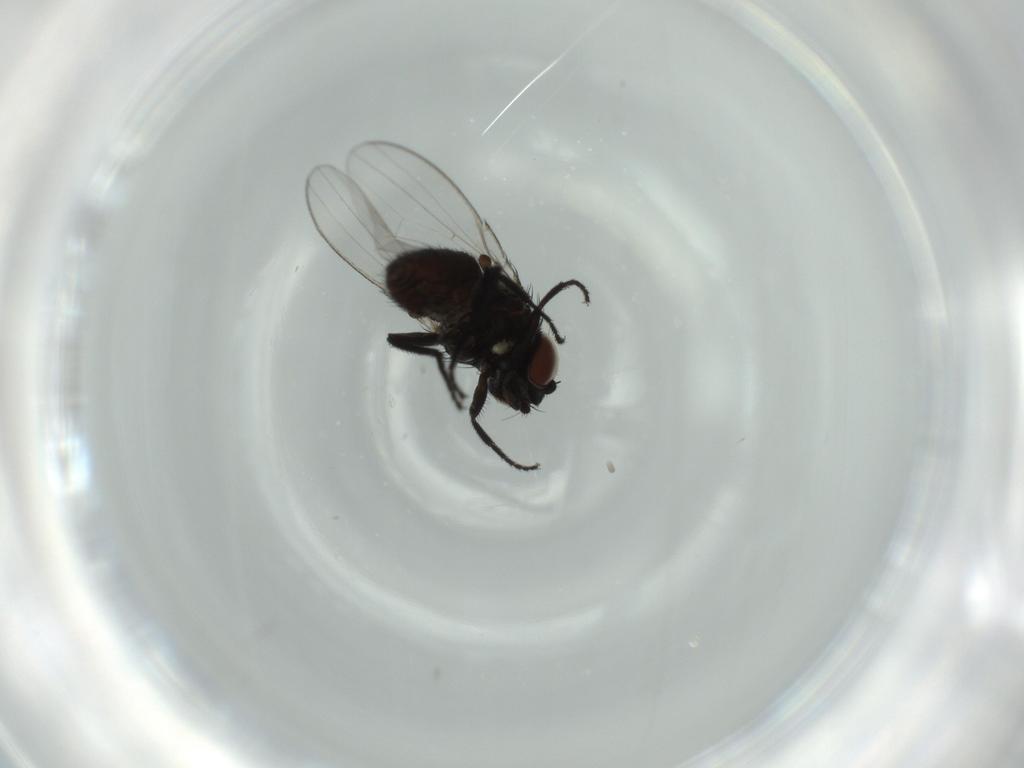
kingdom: Animalia
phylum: Arthropoda
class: Insecta
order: Diptera
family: Milichiidae
